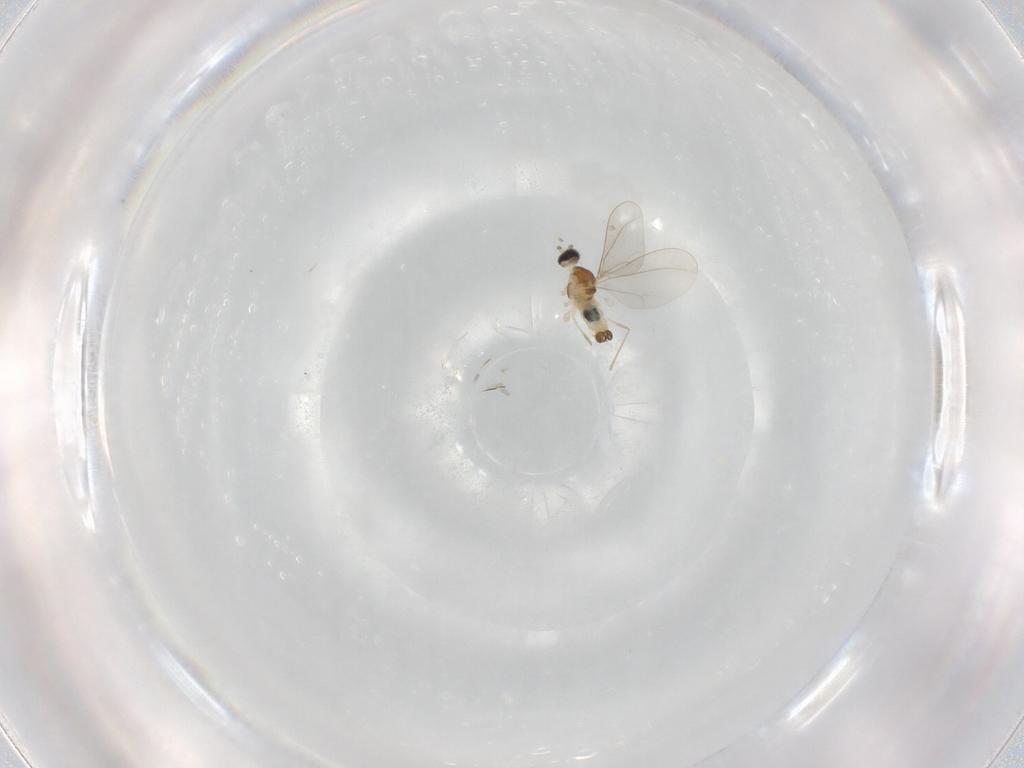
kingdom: Animalia
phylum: Arthropoda
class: Insecta
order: Diptera
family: Cecidomyiidae
